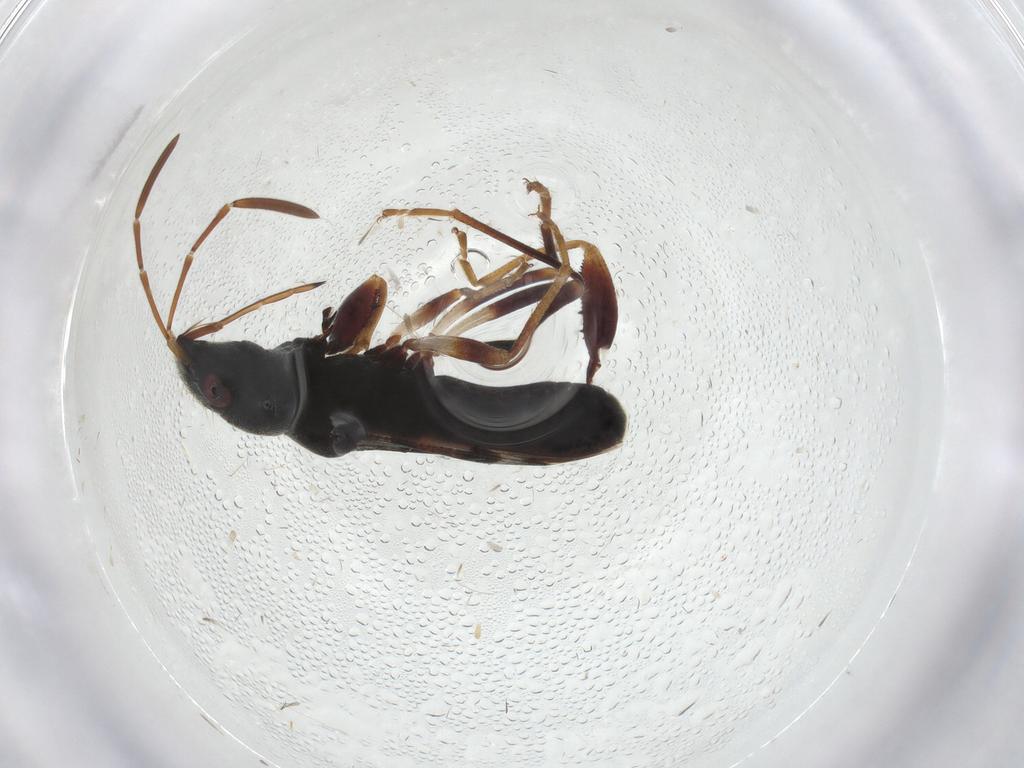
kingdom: Animalia
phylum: Arthropoda
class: Insecta
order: Hemiptera
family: Rhyparochromidae
